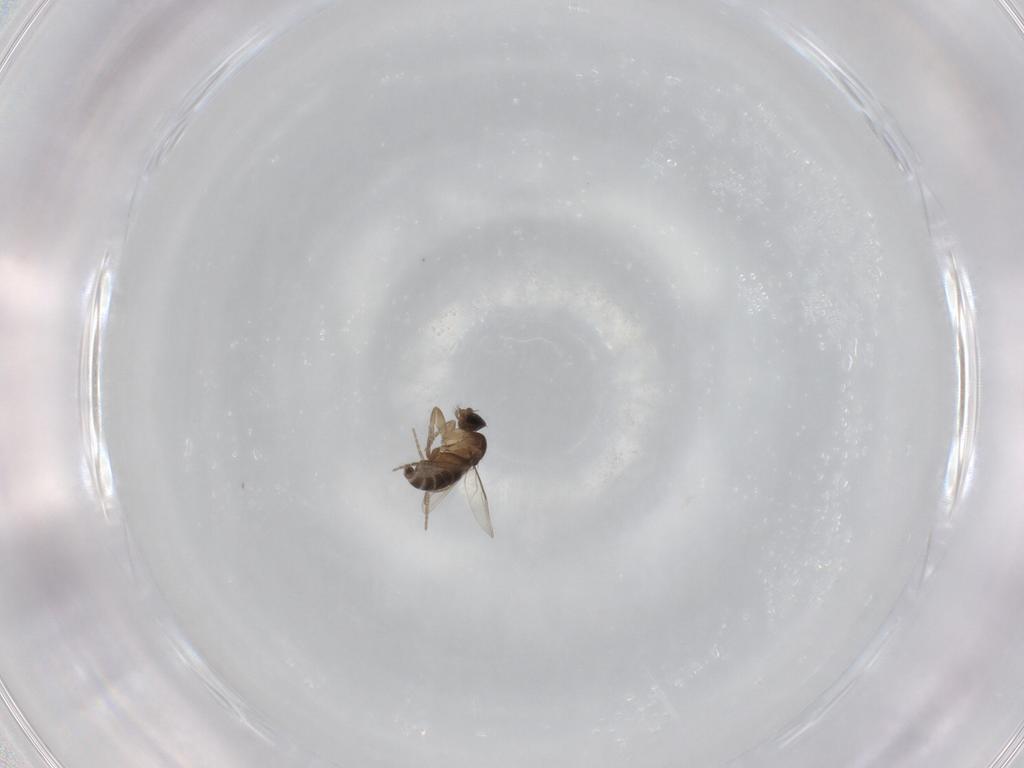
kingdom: Animalia
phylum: Arthropoda
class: Insecta
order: Diptera
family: Phoridae
